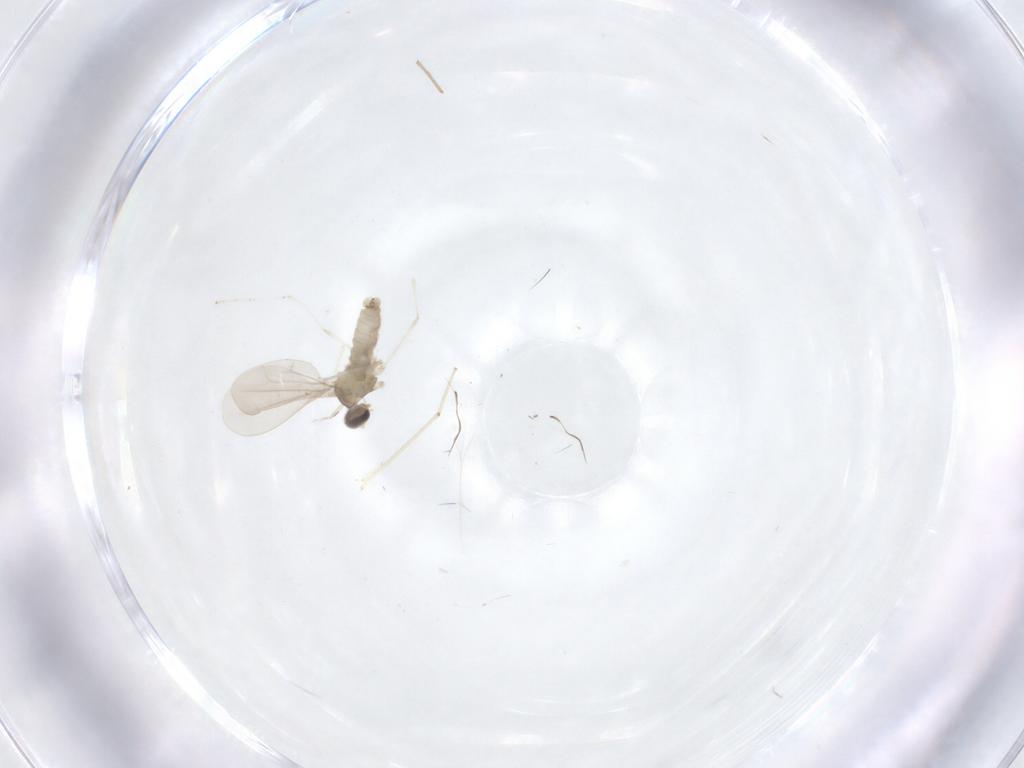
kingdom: Animalia
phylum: Arthropoda
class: Insecta
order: Diptera
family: Cecidomyiidae
